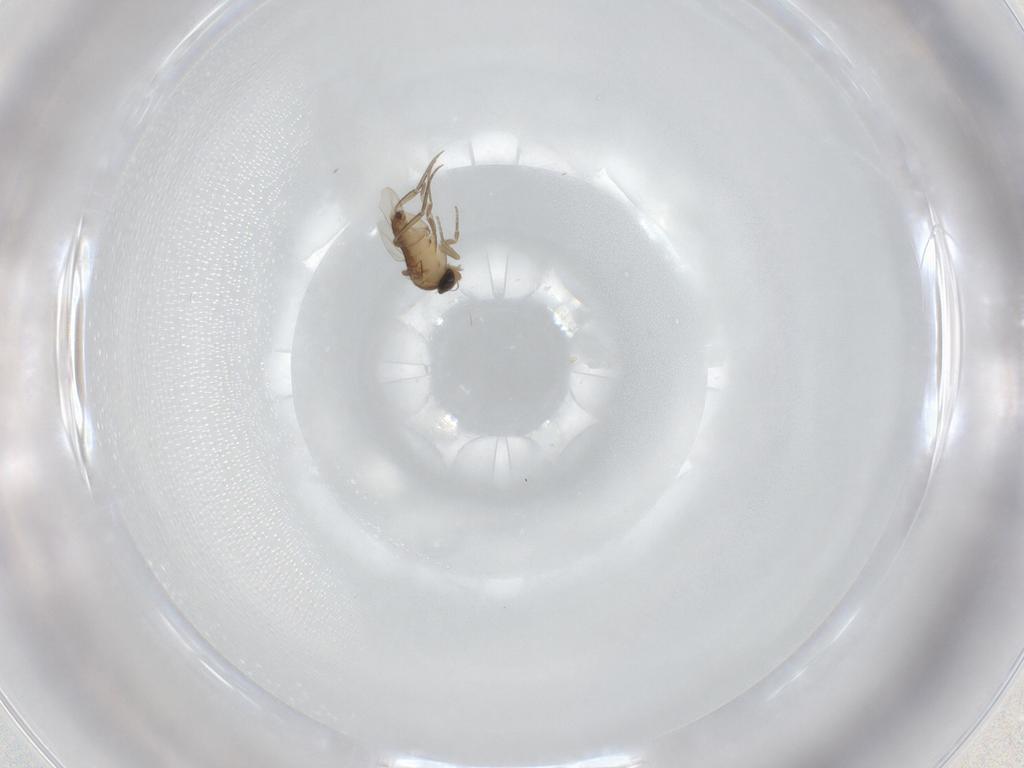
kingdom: Animalia
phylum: Arthropoda
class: Insecta
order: Diptera
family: Phoridae
